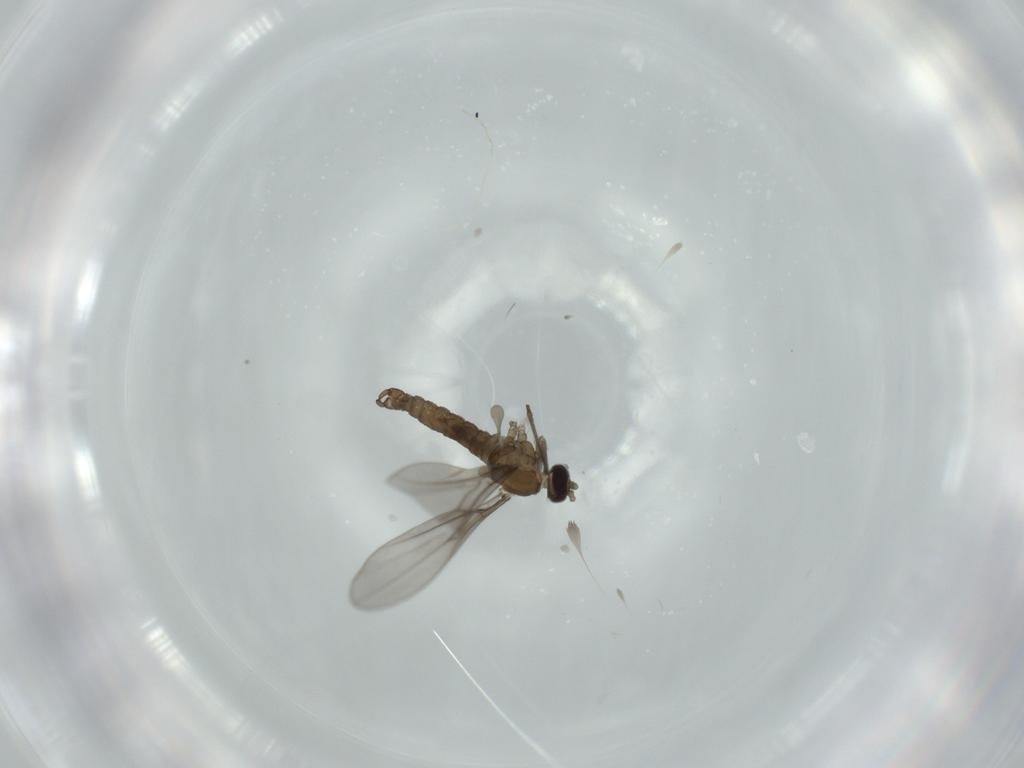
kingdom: Animalia
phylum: Arthropoda
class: Insecta
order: Diptera
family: Cecidomyiidae
